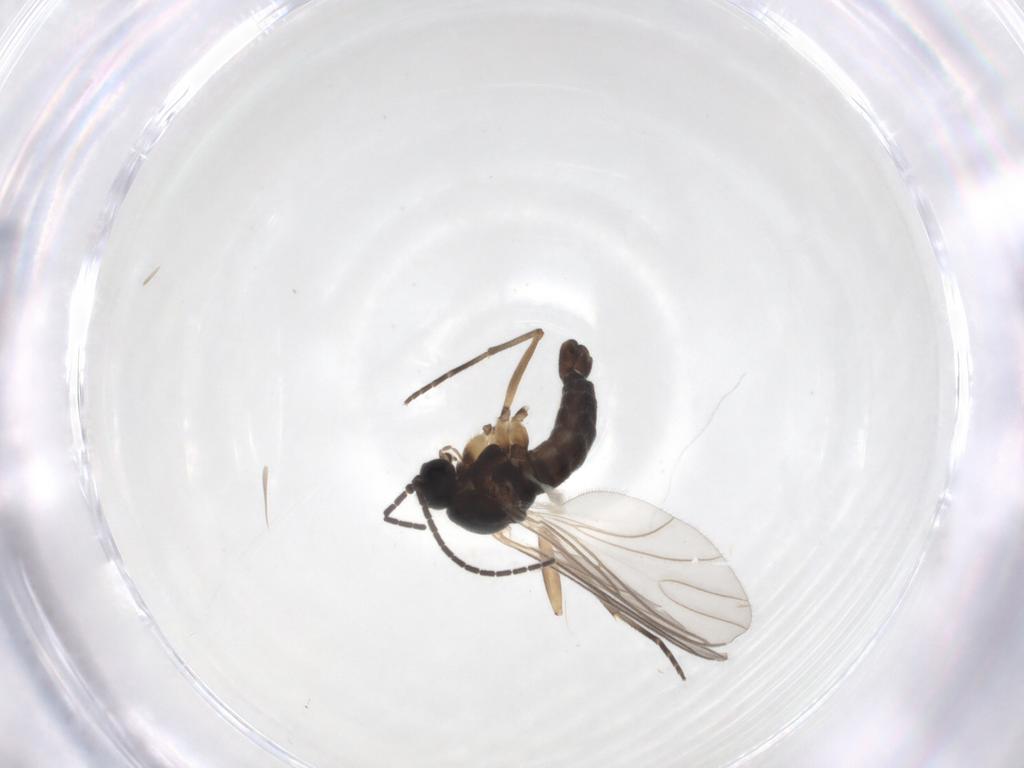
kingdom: Animalia
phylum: Arthropoda
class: Insecta
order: Diptera
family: Sciaridae
